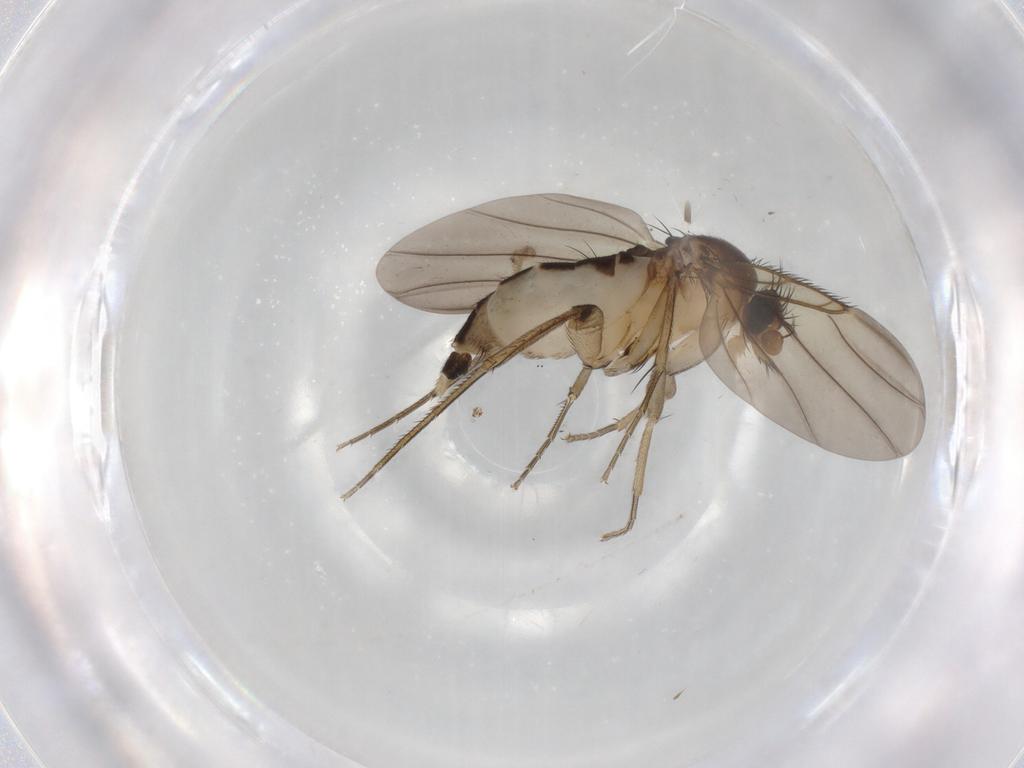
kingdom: Animalia
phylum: Arthropoda
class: Insecta
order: Diptera
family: Phoridae
